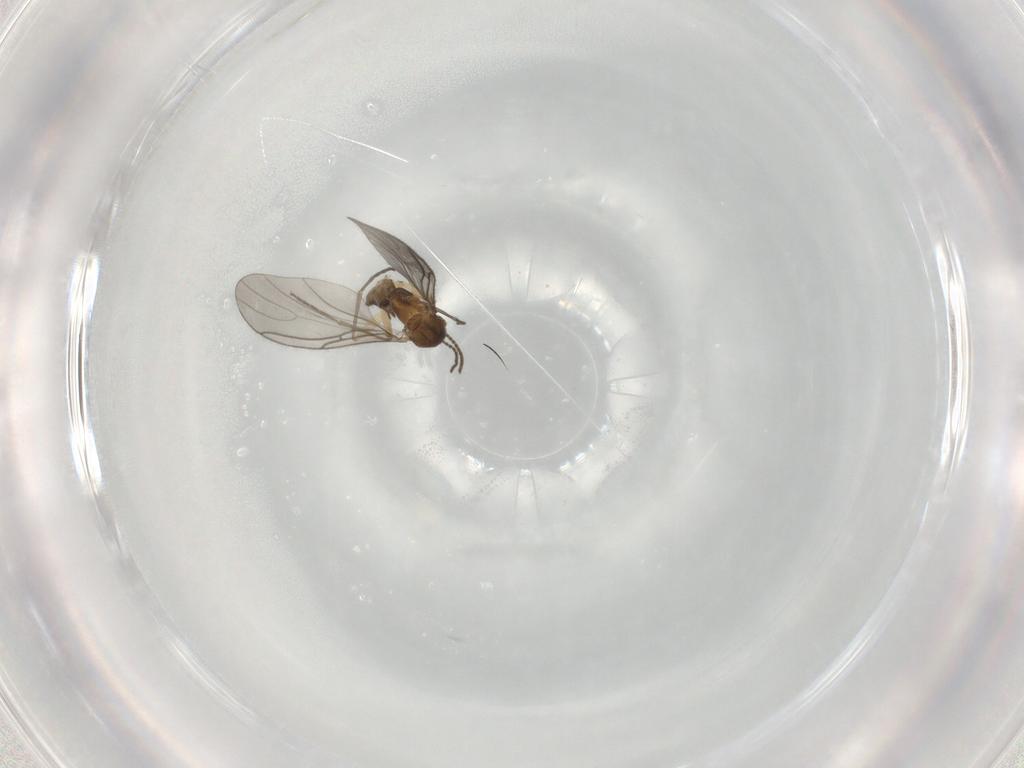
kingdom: Animalia
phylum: Arthropoda
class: Insecta
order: Diptera
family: Sciaridae
